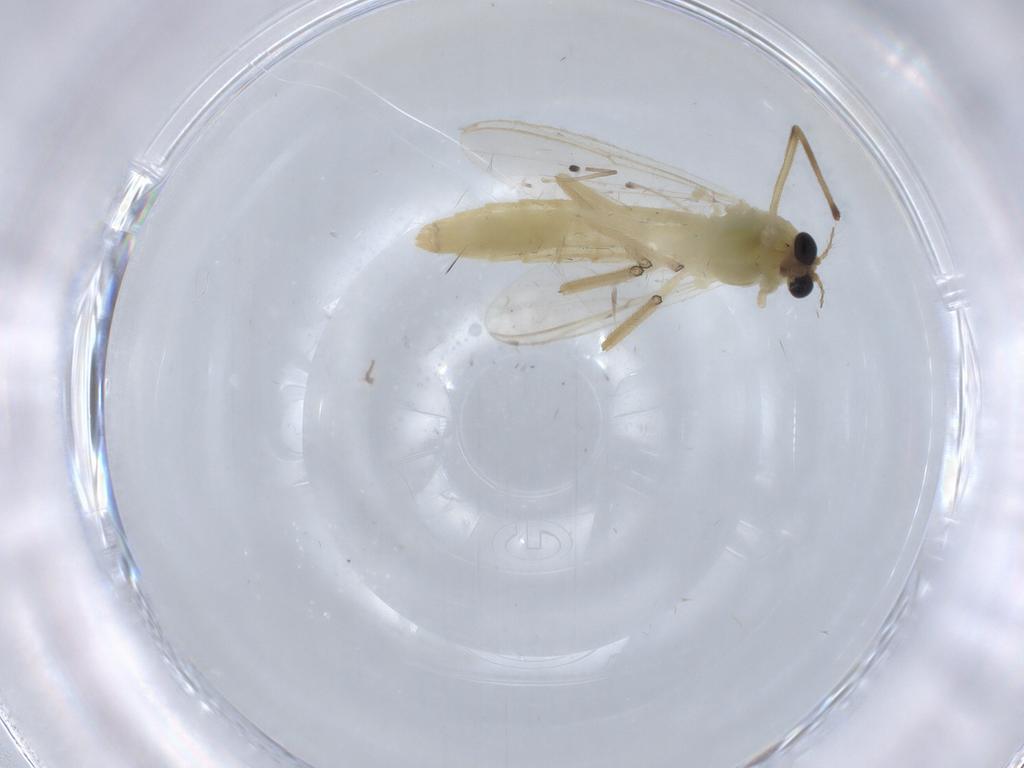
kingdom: Animalia
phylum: Arthropoda
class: Insecta
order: Diptera
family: Chironomidae
